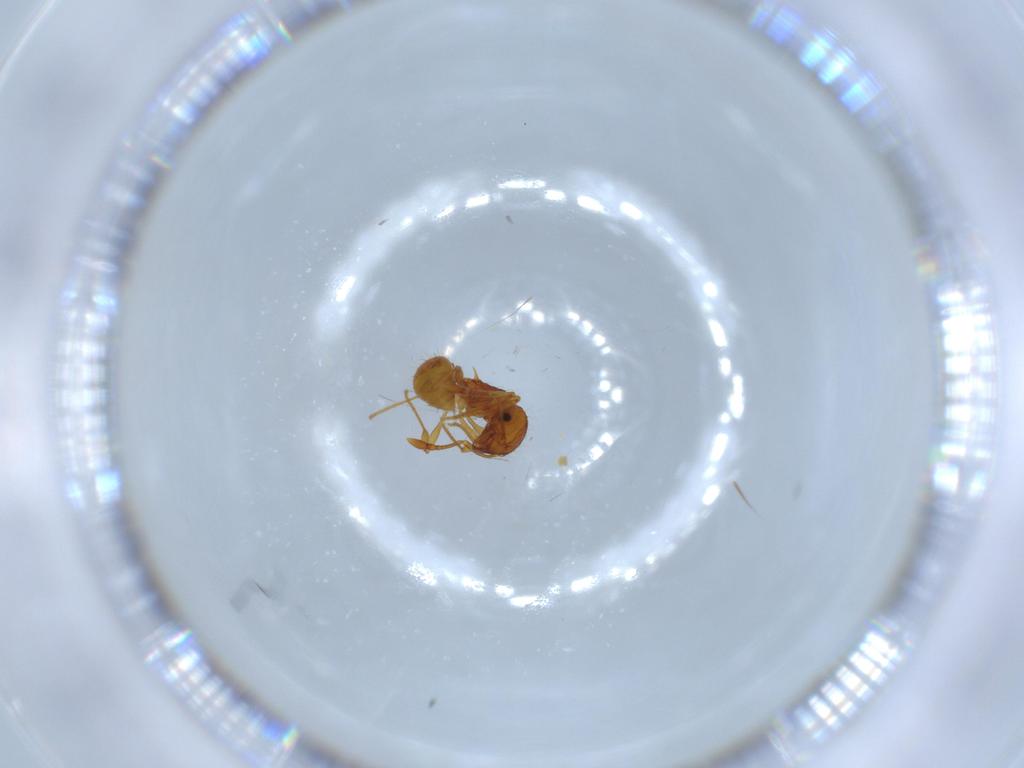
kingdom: Animalia
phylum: Arthropoda
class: Insecta
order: Hymenoptera
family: Formicidae
